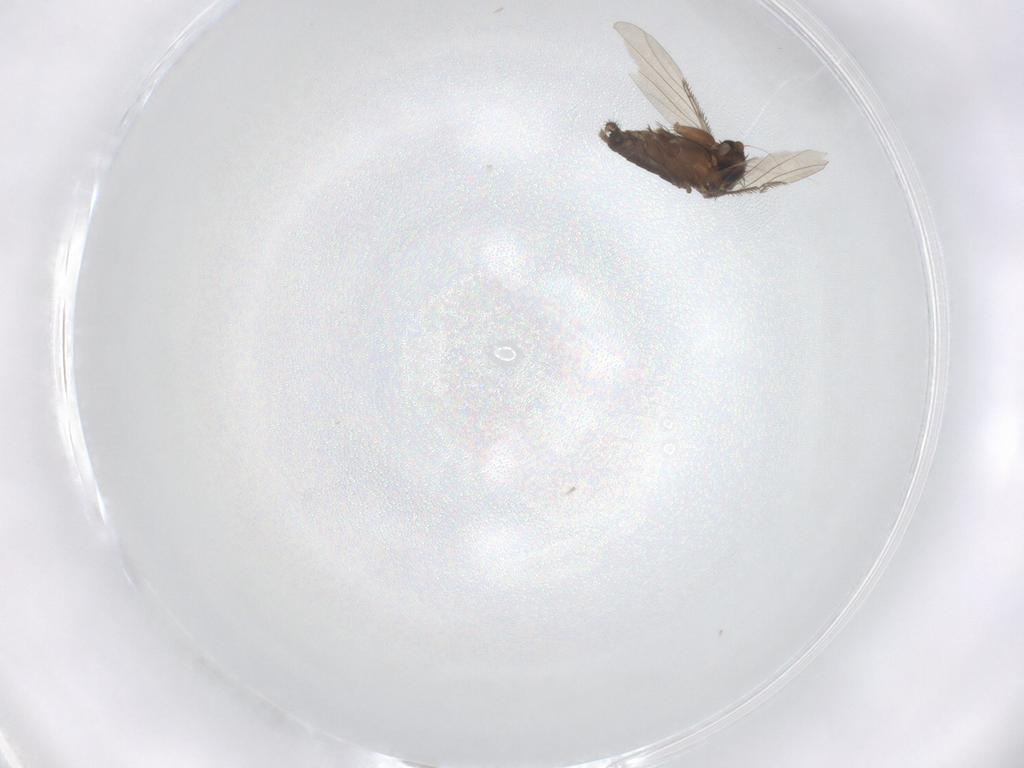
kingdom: Animalia
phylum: Arthropoda
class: Insecta
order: Diptera
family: Phoridae
